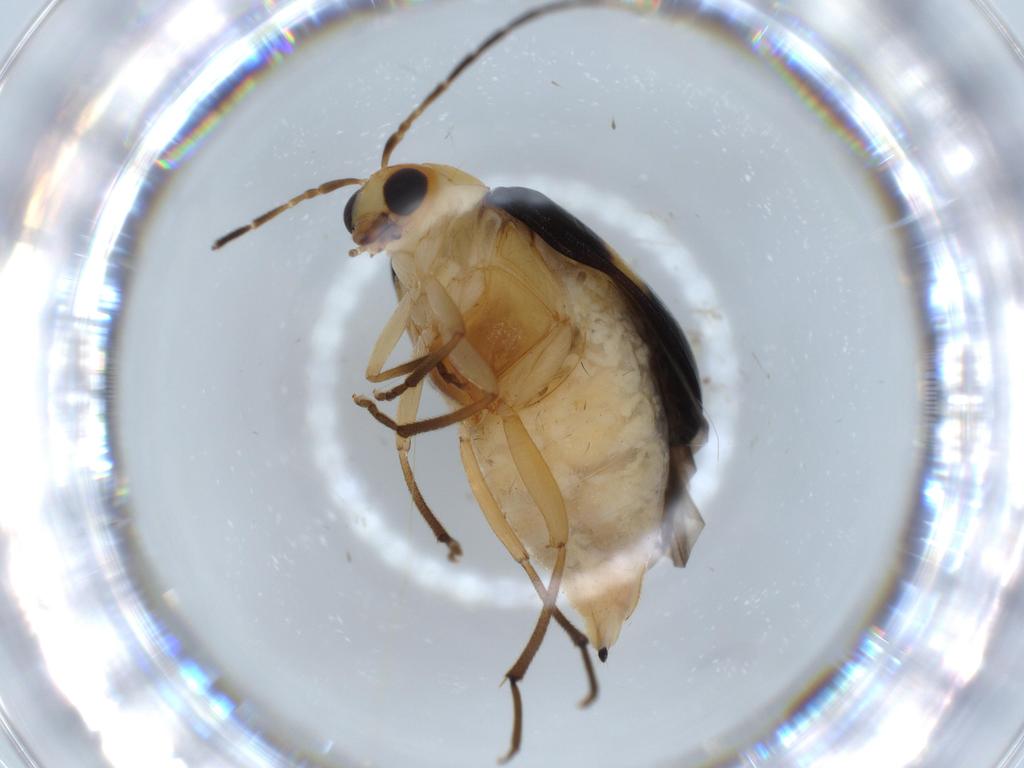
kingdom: Animalia
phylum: Arthropoda
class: Insecta
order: Coleoptera
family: Chrysomelidae
